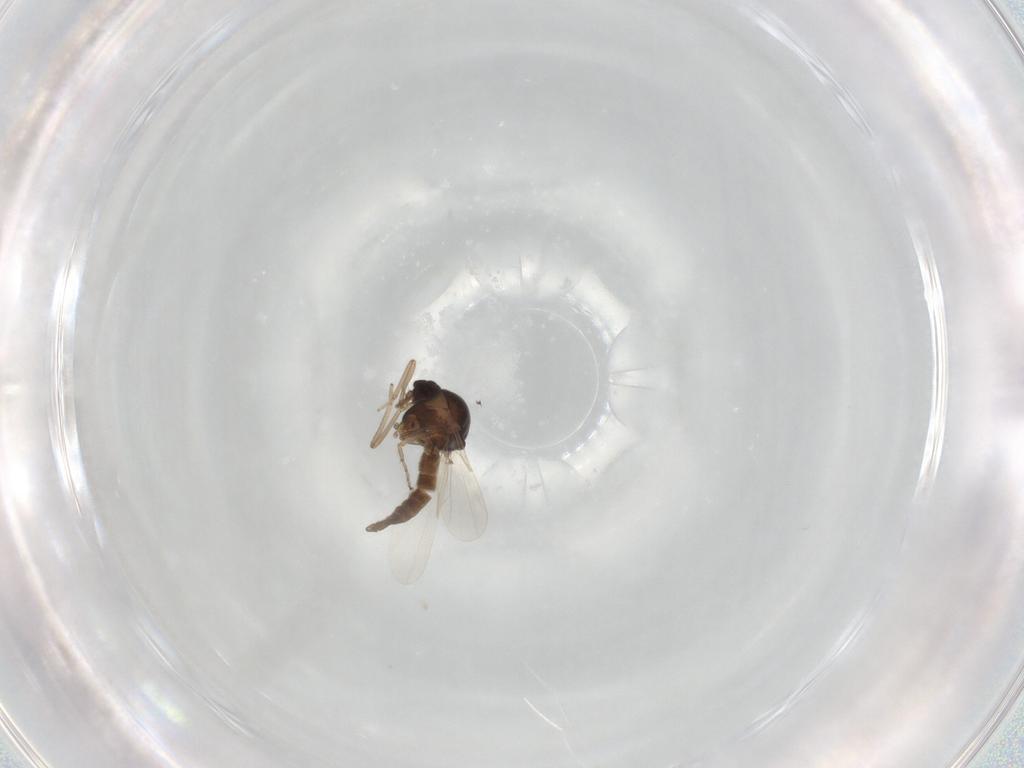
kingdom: Animalia
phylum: Arthropoda
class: Insecta
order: Diptera
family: Ceratopogonidae
